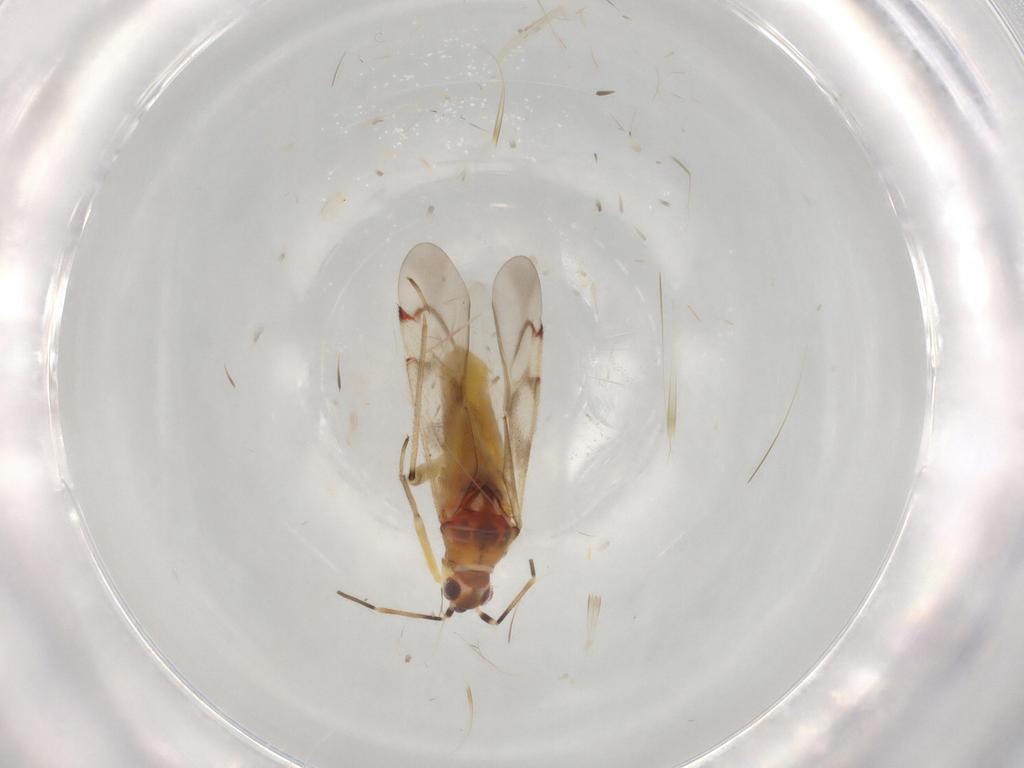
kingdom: Animalia
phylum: Arthropoda
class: Insecta
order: Hemiptera
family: Miridae
